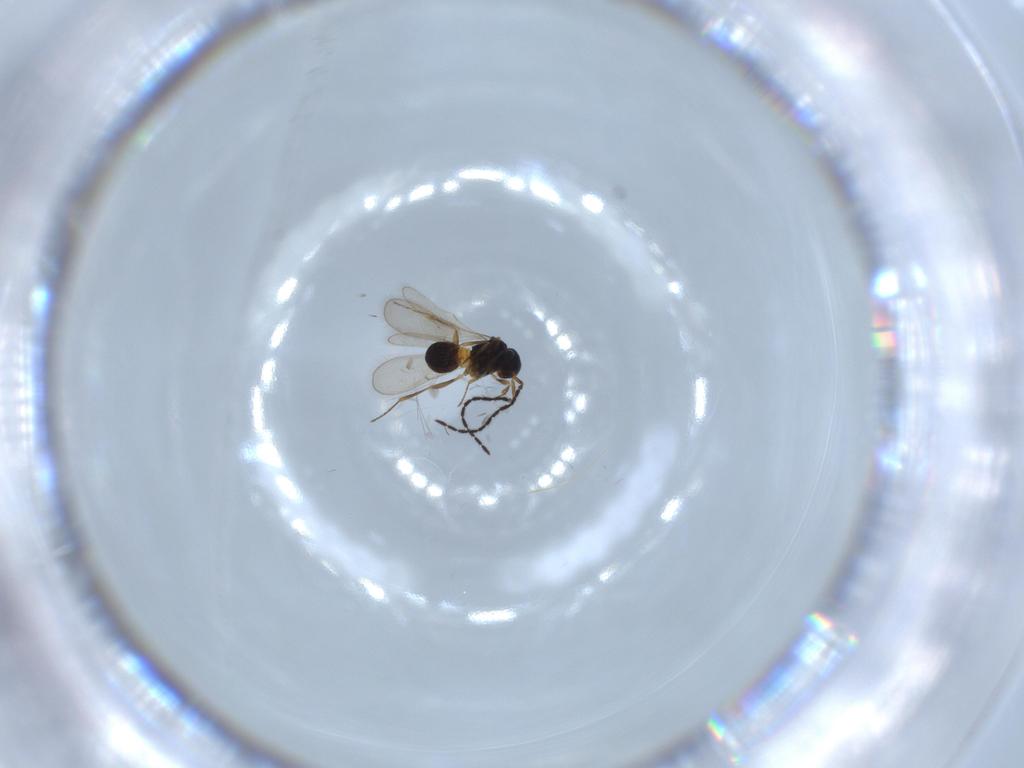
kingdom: Animalia
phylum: Arthropoda
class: Insecta
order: Hymenoptera
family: Scelionidae
